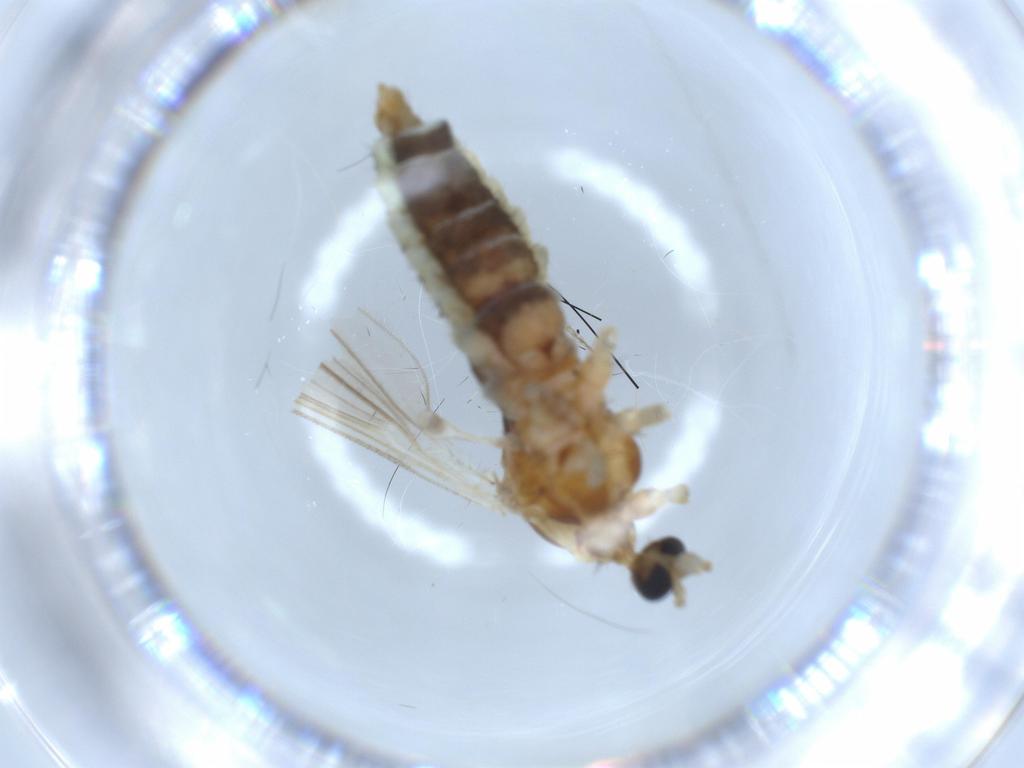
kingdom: Animalia
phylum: Arthropoda
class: Insecta
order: Diptera
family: Limoniidae
